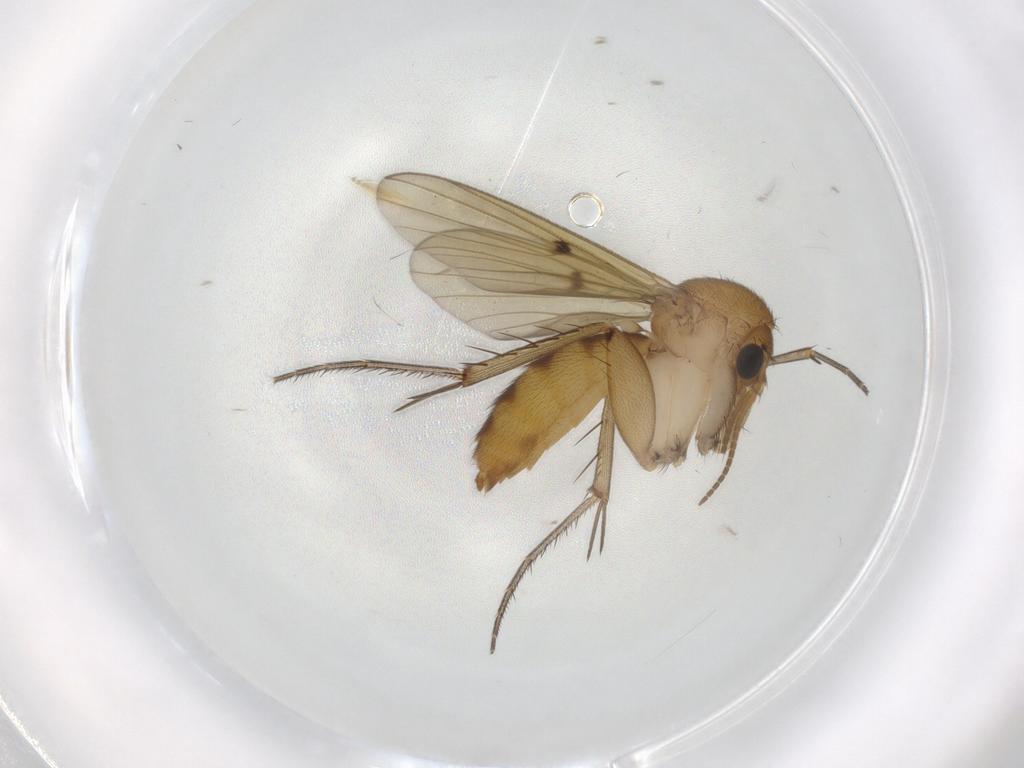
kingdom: Animalia
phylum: Arthropoda
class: Insecta
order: Diptera
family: Chironomidae
